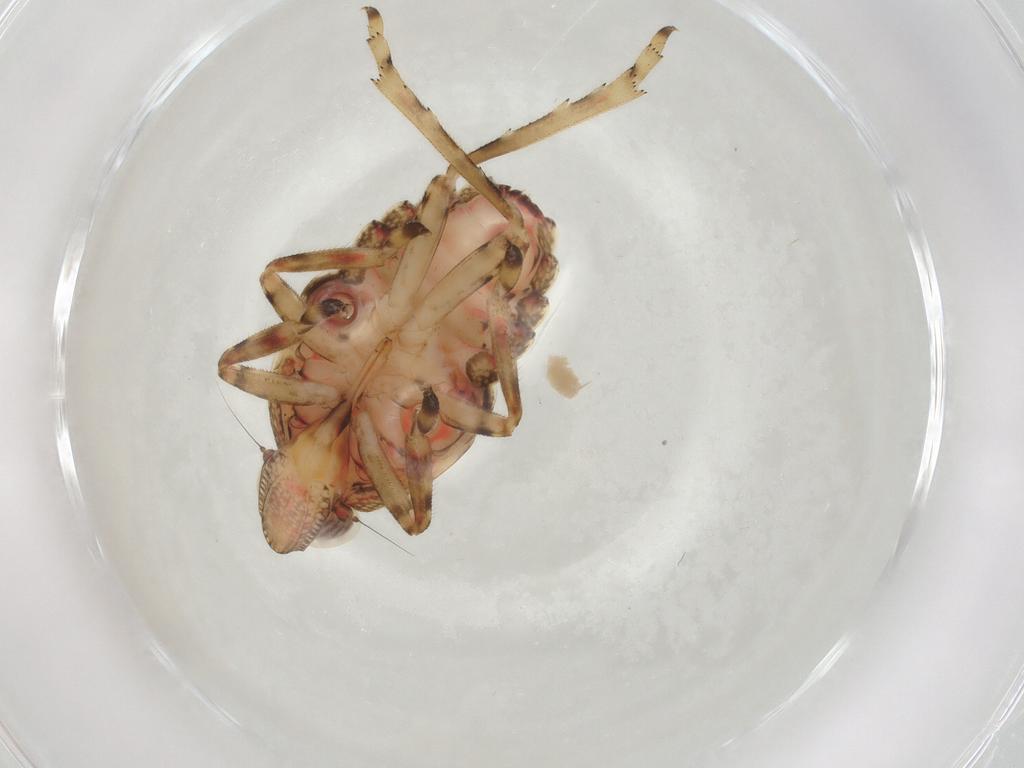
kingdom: Animalia
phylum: Arthropoda
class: Insecta
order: Hemiptera
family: Tropiduchidae
